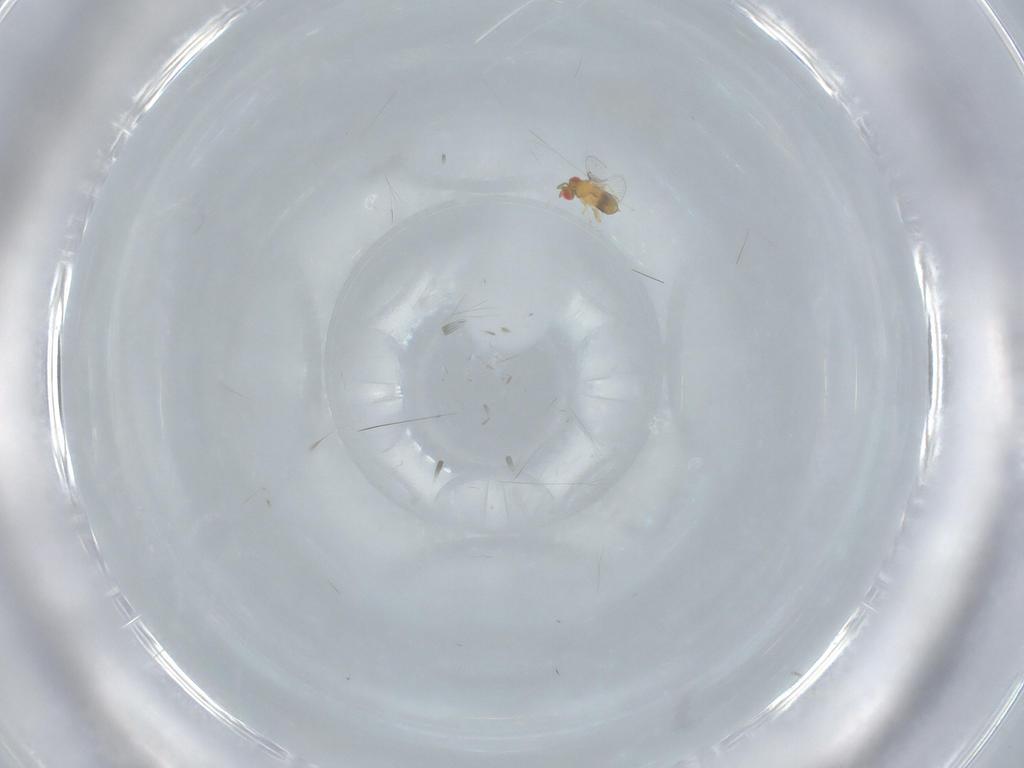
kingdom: Animalia
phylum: Arthropoda
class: Insecta
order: Hymenoptera
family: Trichogrammatidae
